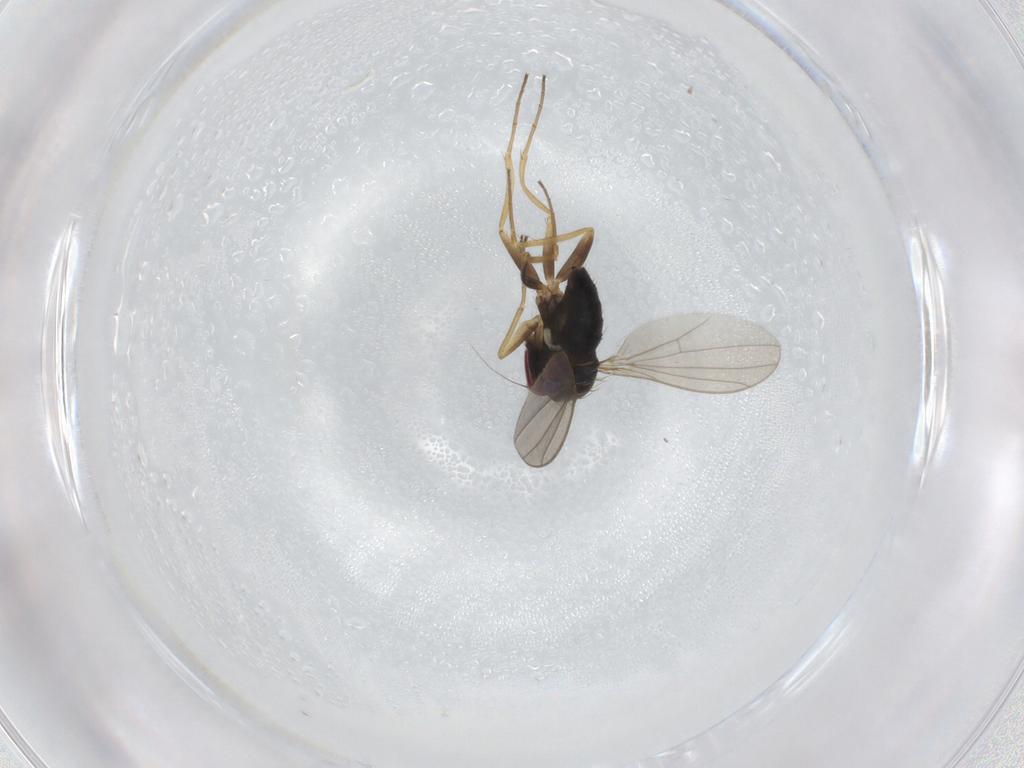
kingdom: Animalia
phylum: Arthropoda
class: Insecta
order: Diptera
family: Dolichopodidae
